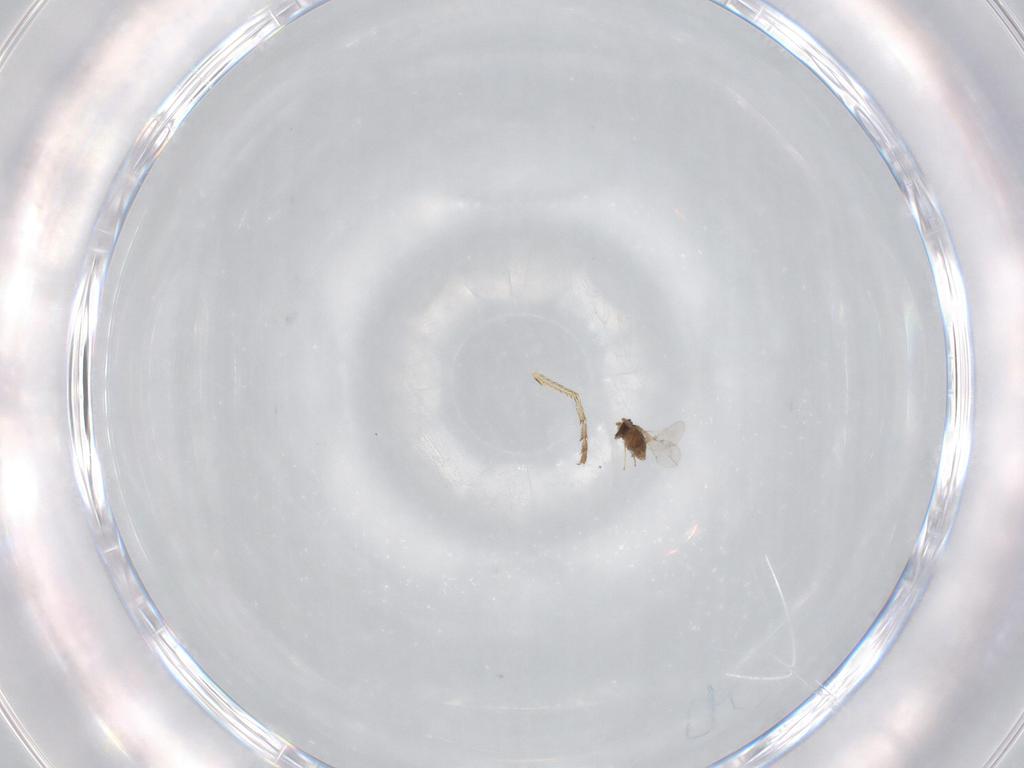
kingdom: Animalia
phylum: Arthropoda
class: Insecta
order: Hymenoptera
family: Encyrtidae
